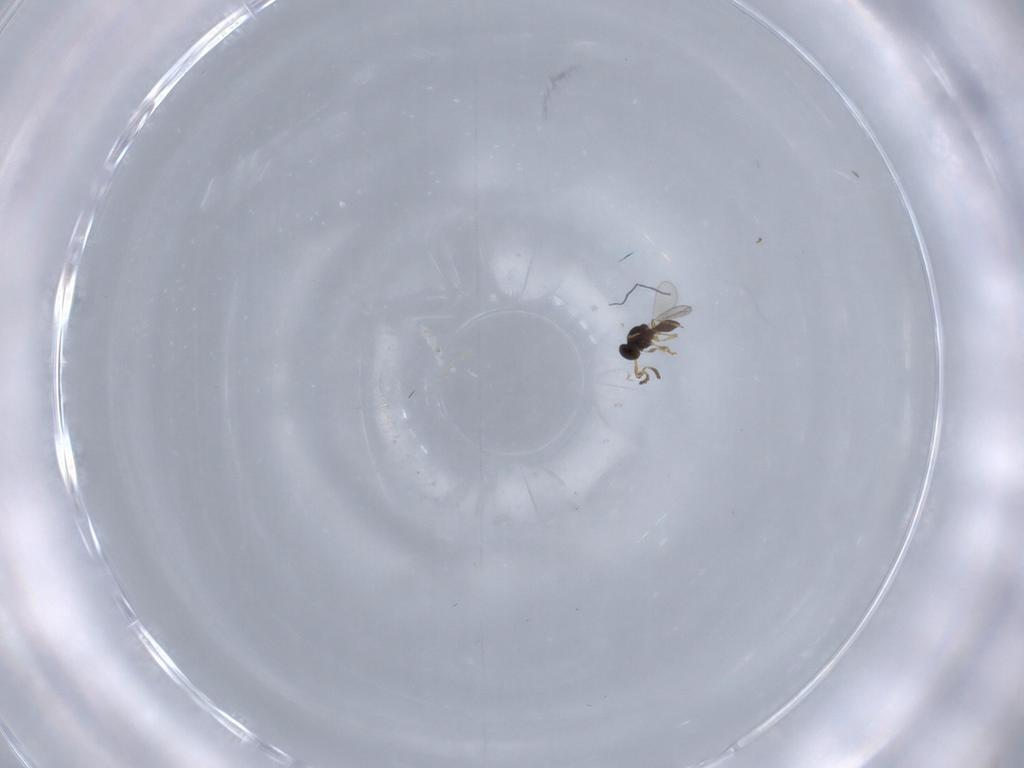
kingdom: Animalia
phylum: Arthropoda
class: Insecta
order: Hymenoptera
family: Platygastridae
